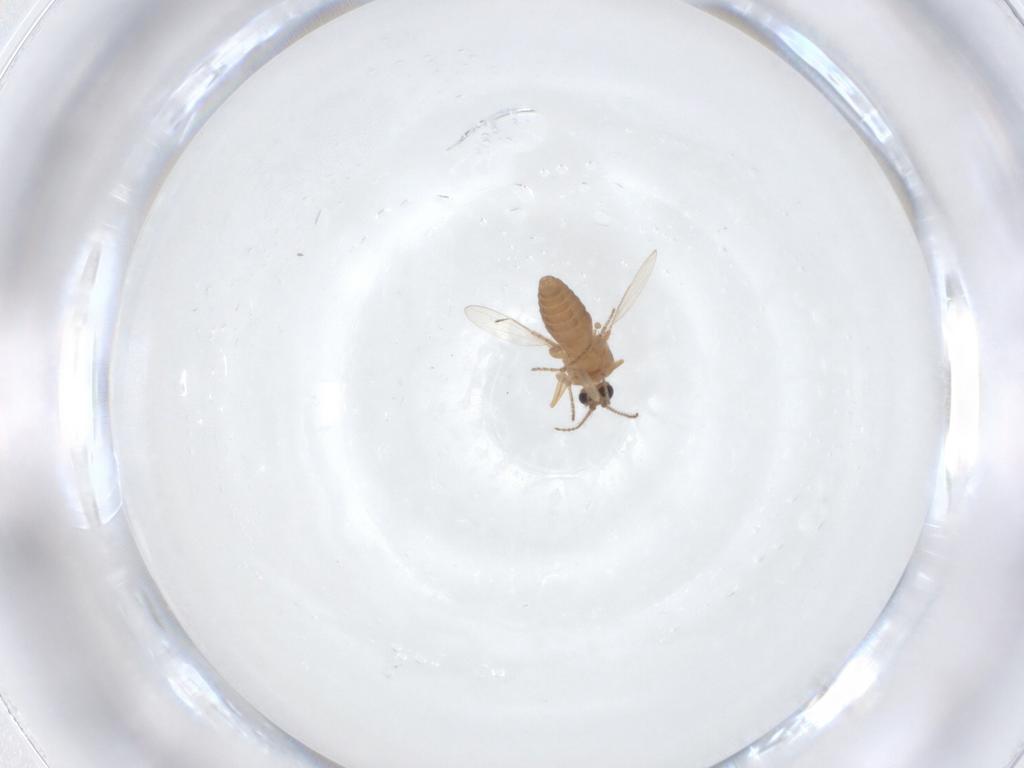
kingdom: Animalia
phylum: Arthropoda
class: Insecta
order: Diptera
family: Ceratopogonidae
